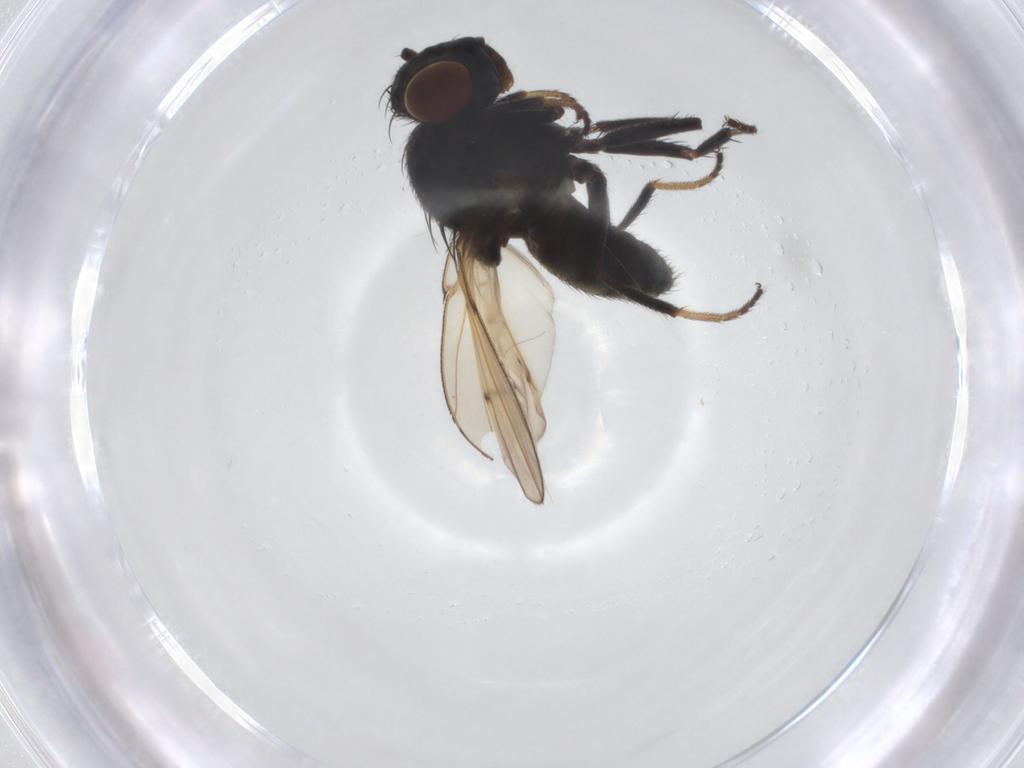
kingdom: Animalia
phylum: Arthropoda
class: Insecta
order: Diptera
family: Ephydridae
